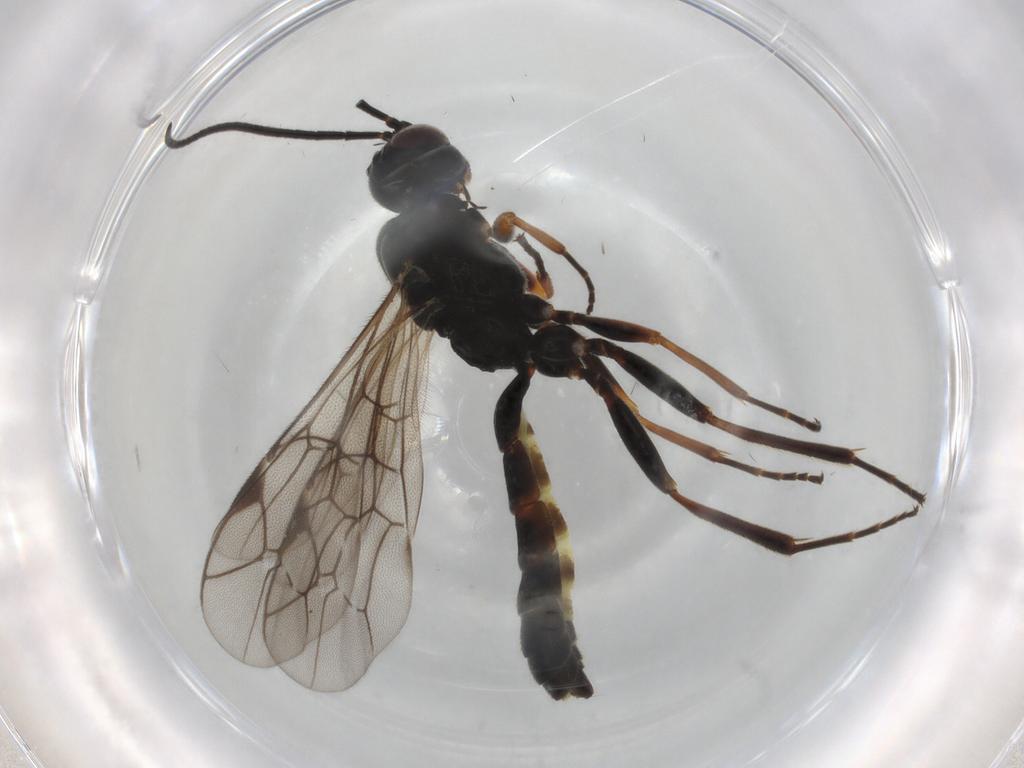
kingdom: Animalia
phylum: Arthropoda
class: Insecta
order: Hymenoptera
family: Ichneumonidae
